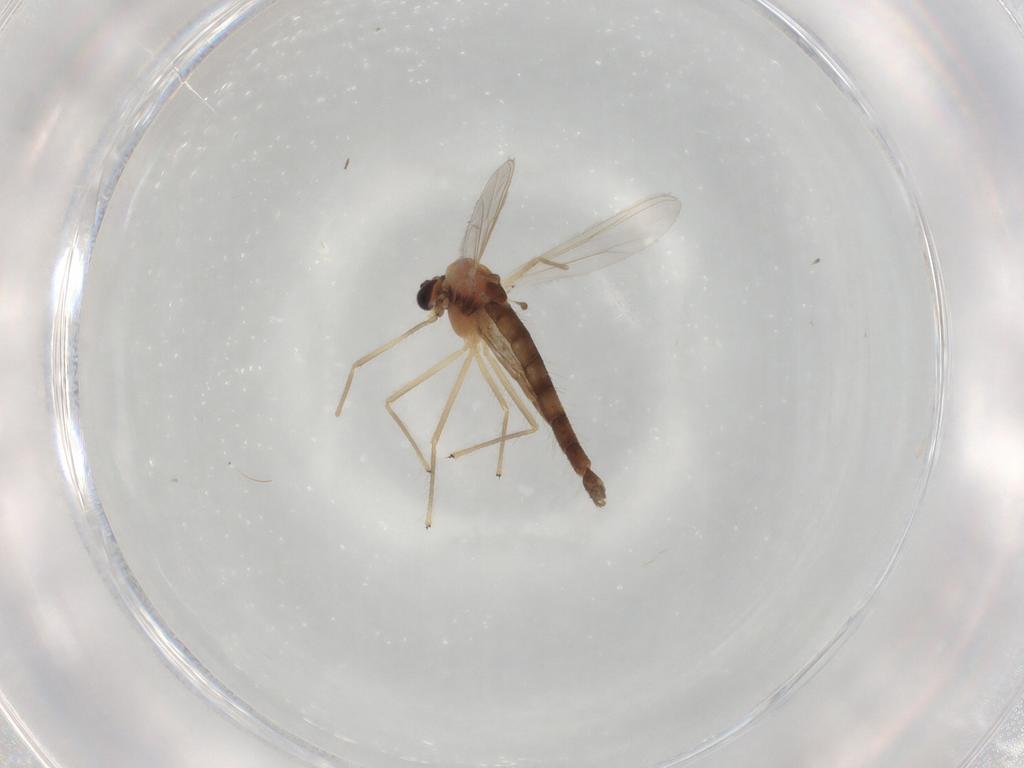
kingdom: Animalia
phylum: Arthropoda
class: Insecta
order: Diptera
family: Chironomidae
